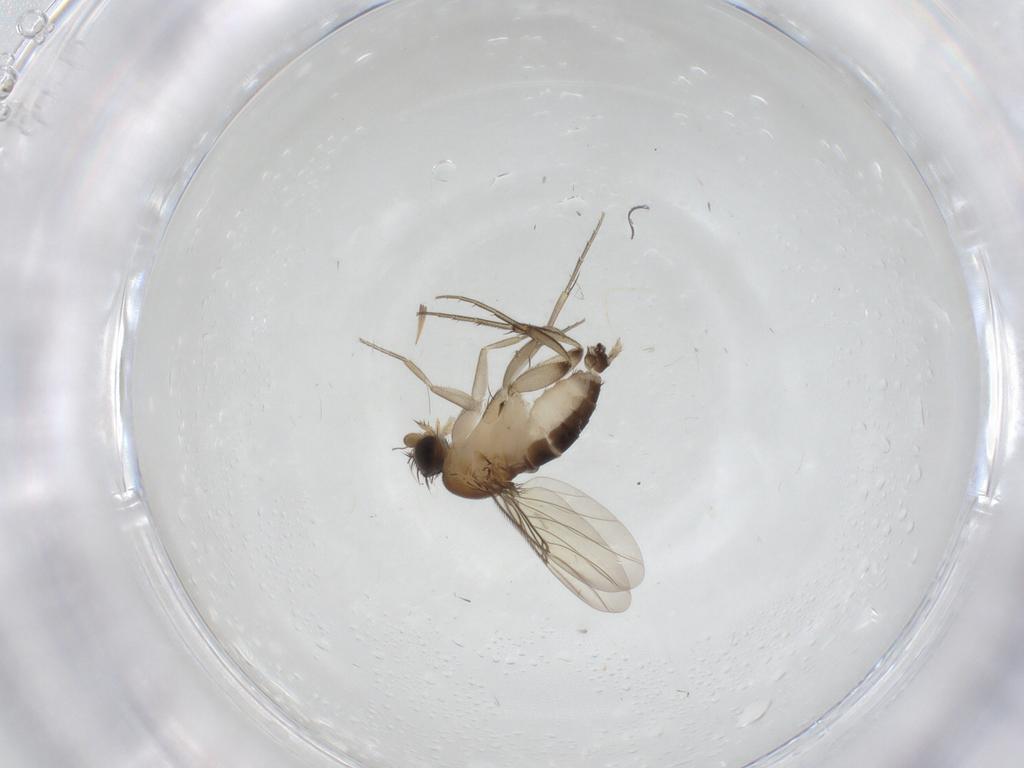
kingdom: Animalia
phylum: Arthropoda
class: Insecta
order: Diptera
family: Phoridae
